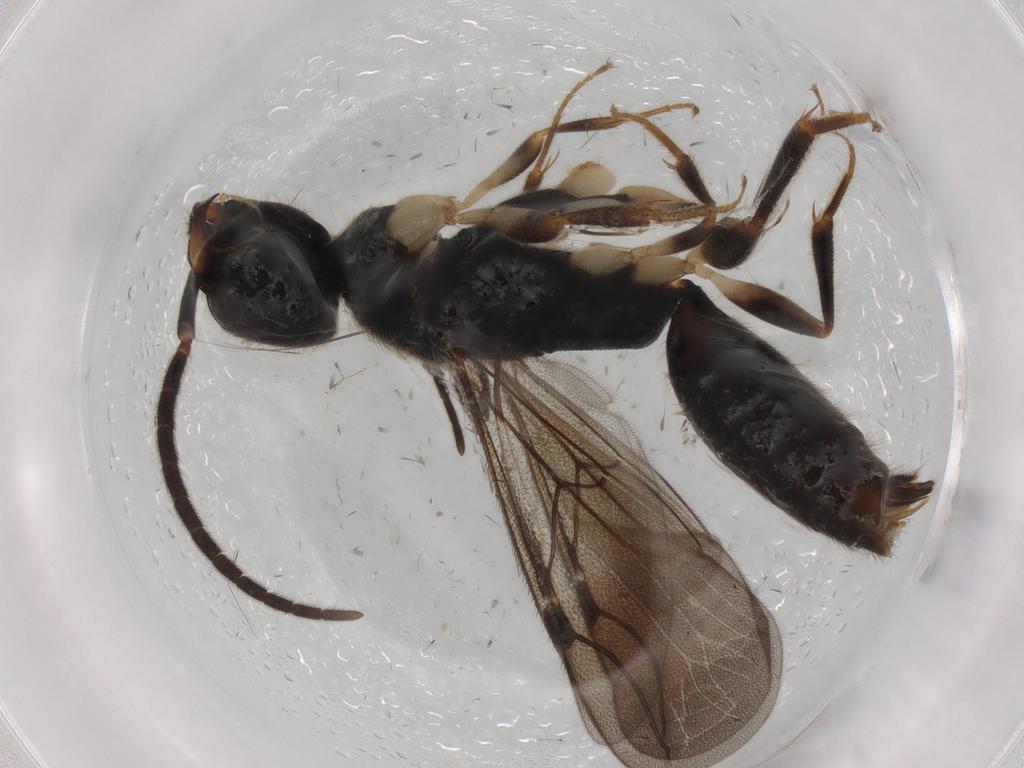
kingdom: Animalia
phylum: Arthropoda
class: Insecta
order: Hymenoptera
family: Bethylidae
